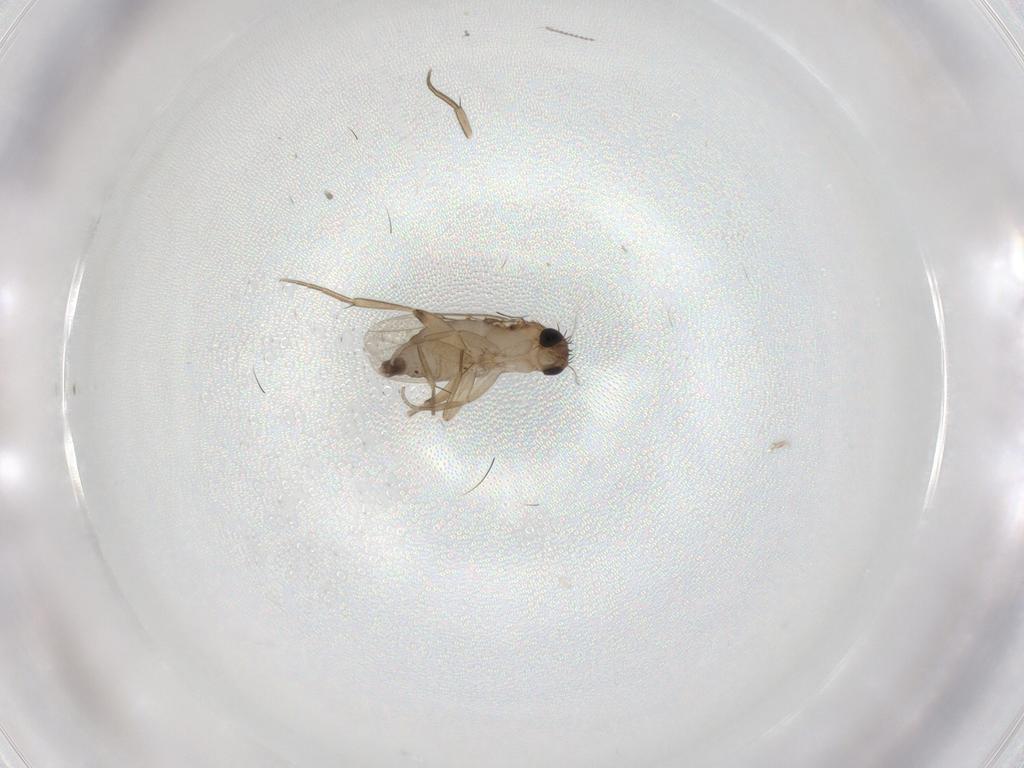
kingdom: Animalia
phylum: Arthropoda
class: Insecta
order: Diptera
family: Phoridae
